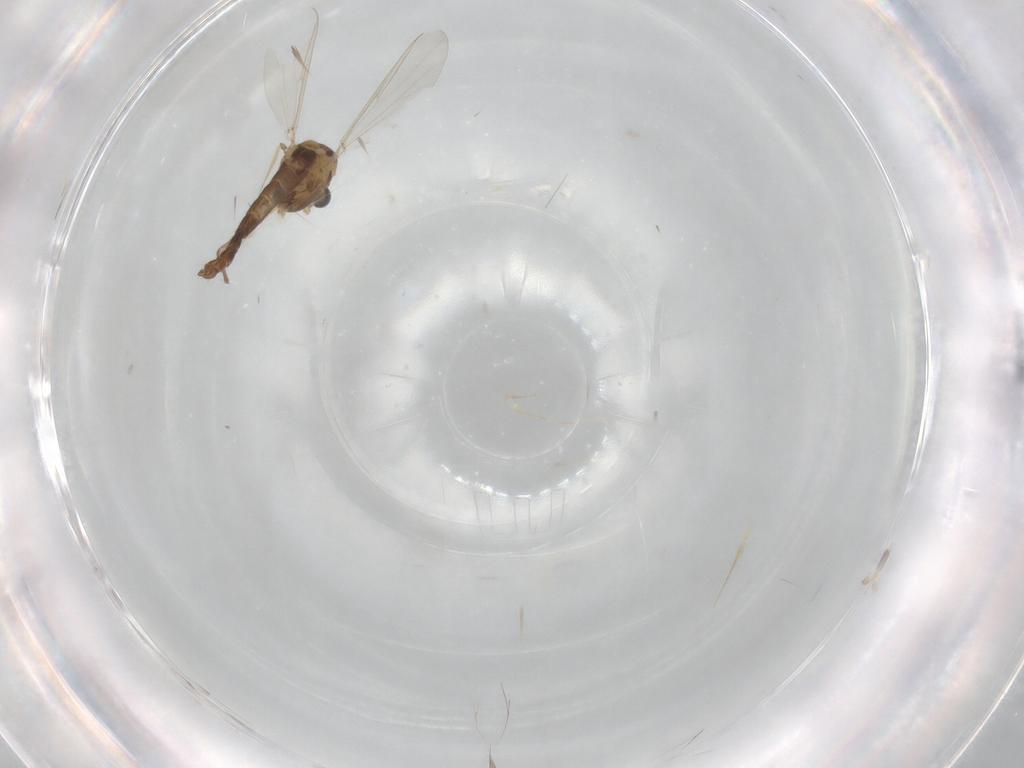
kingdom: Animalia
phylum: Arthropoda
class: Insecta
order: Diptera
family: Chironomidae
